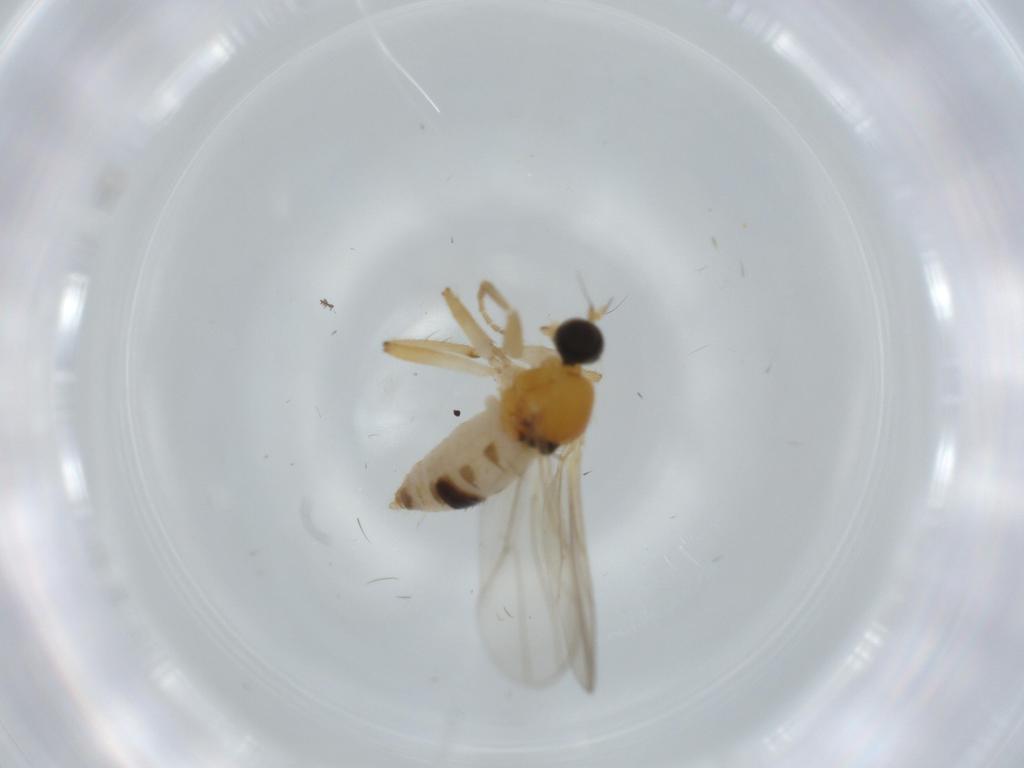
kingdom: Animalia
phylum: Arthropoda
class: Insecta
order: Diptera
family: Hybotidae
